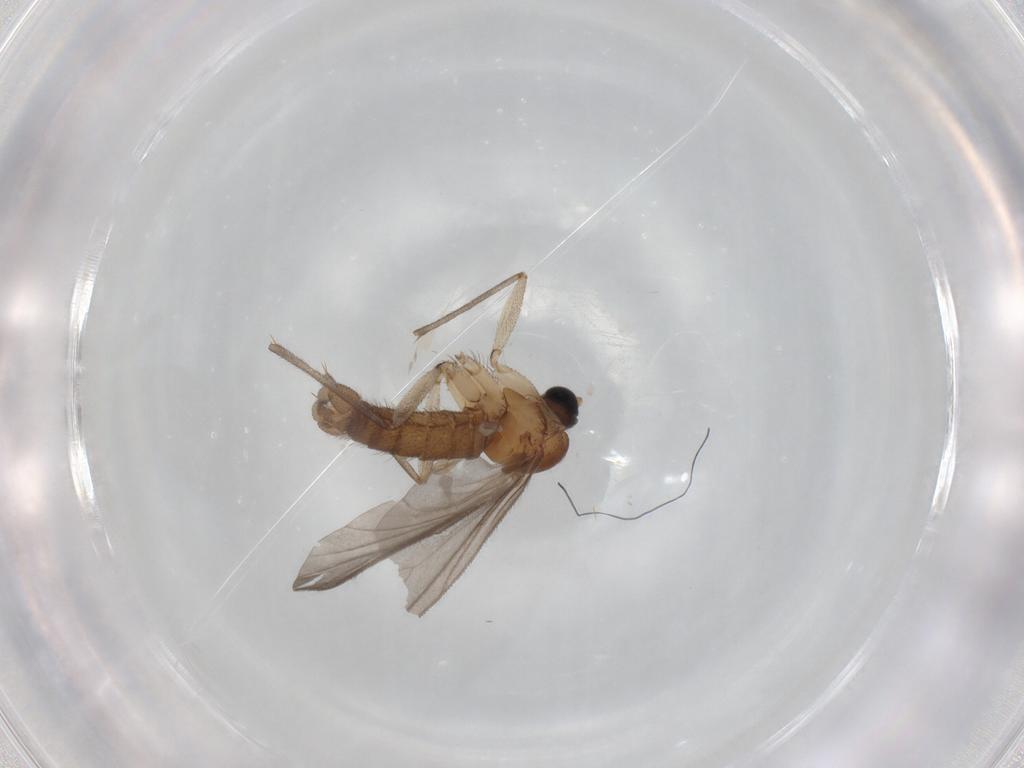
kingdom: Animalia
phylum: Arthropoda
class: Insecta
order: Diptera
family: Sciaridae
